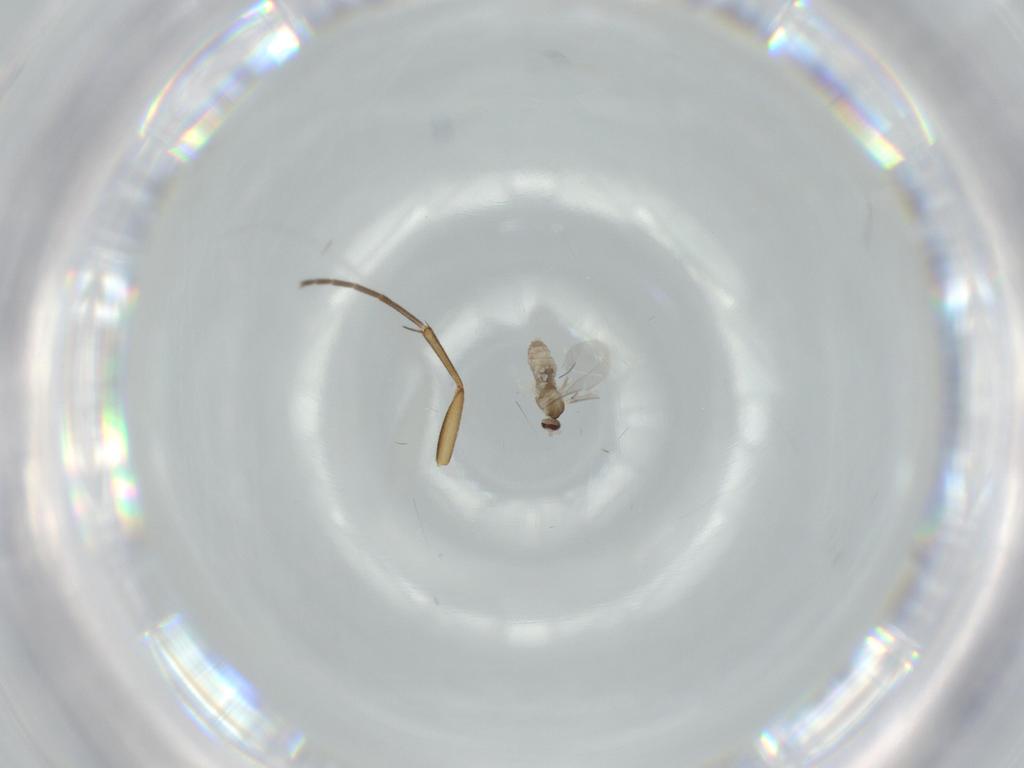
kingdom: Animalia
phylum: Arthropoda
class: Insecta
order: Diptera
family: Cecidomyiidae
